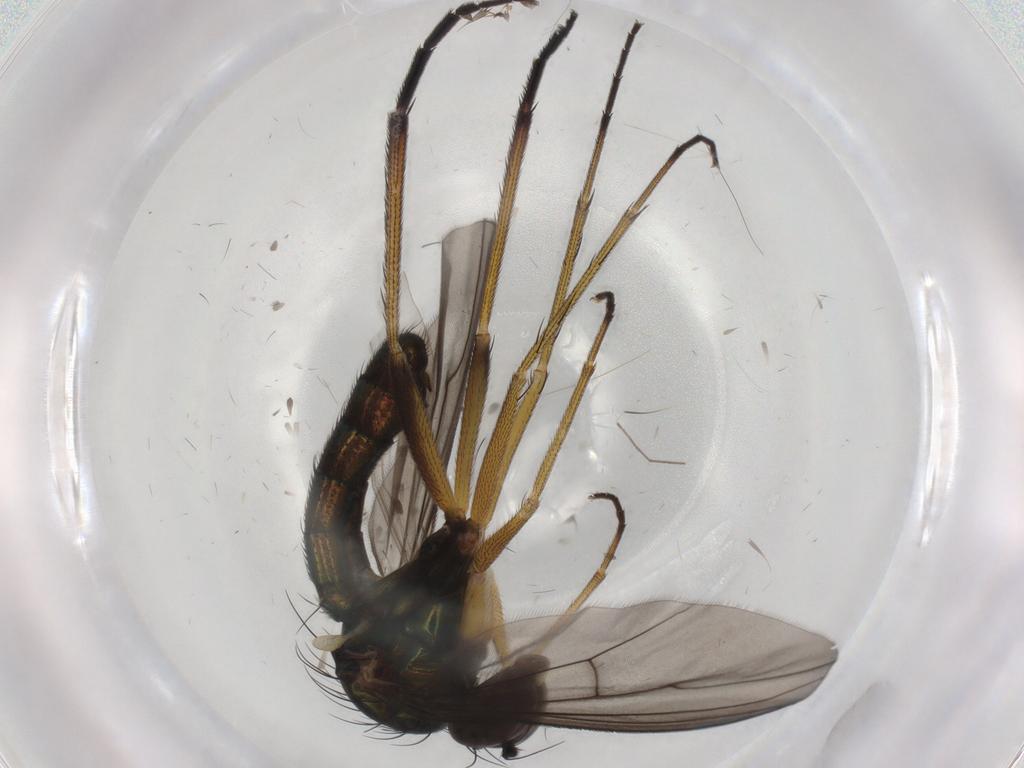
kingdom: Animalia
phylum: Arthropoda
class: Insecta
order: Diptera
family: Dolichopodidae
